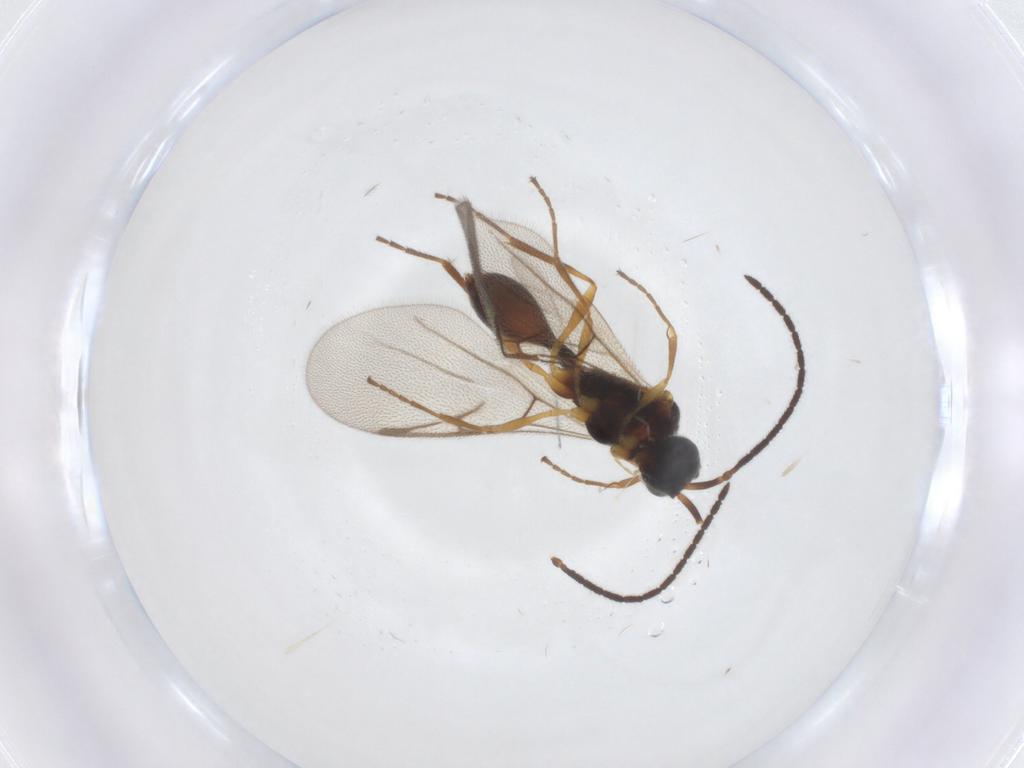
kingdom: Animalia
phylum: Arthropoda
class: Insecta
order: Hymenoptera
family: Diapriidae
